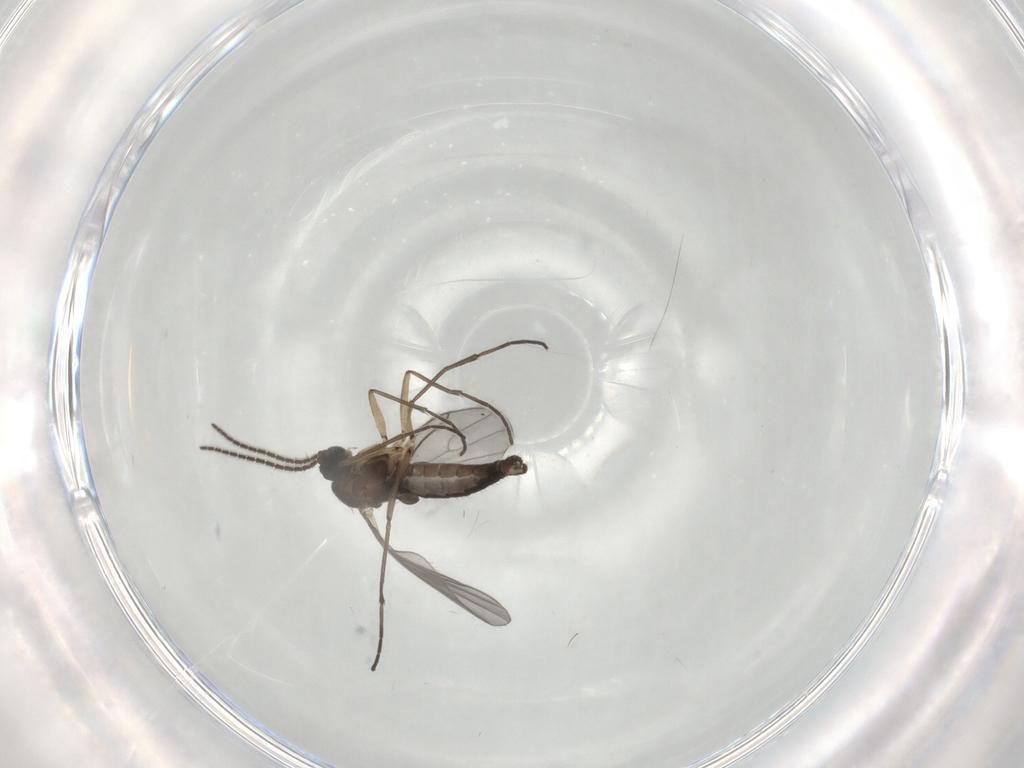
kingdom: Animalia
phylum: Arthropoda
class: Insecta
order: Diptera
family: Sciaridae
